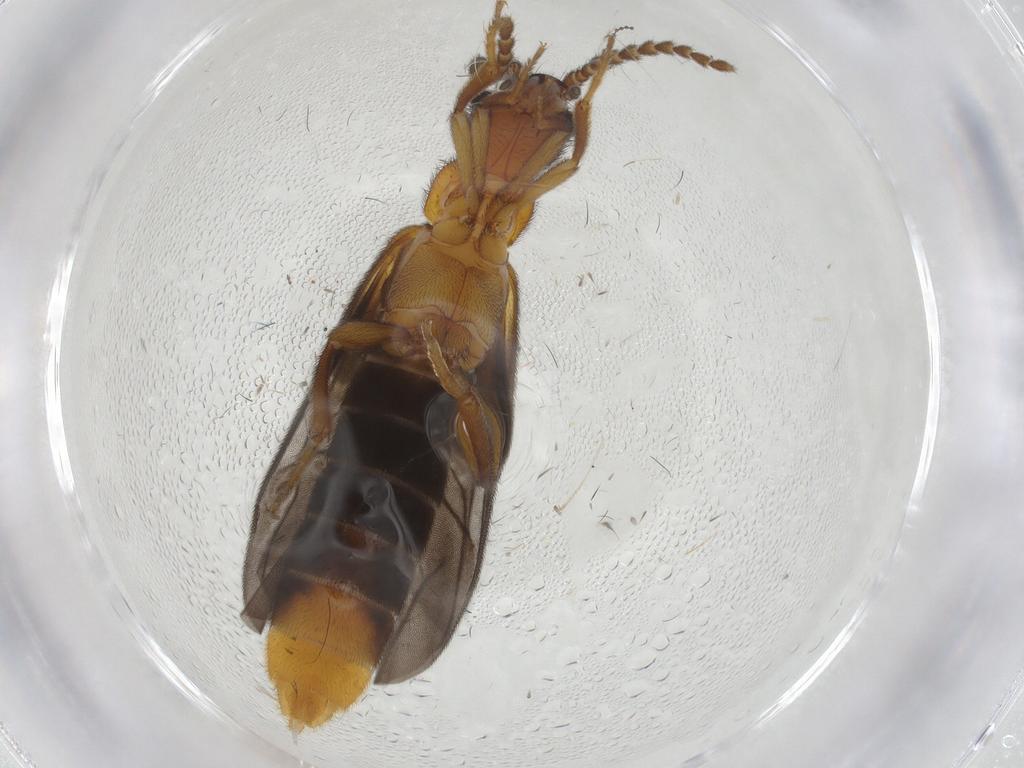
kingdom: Animalia
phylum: Arthropoda
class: Insecta
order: Coleoptera
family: Omethidae
